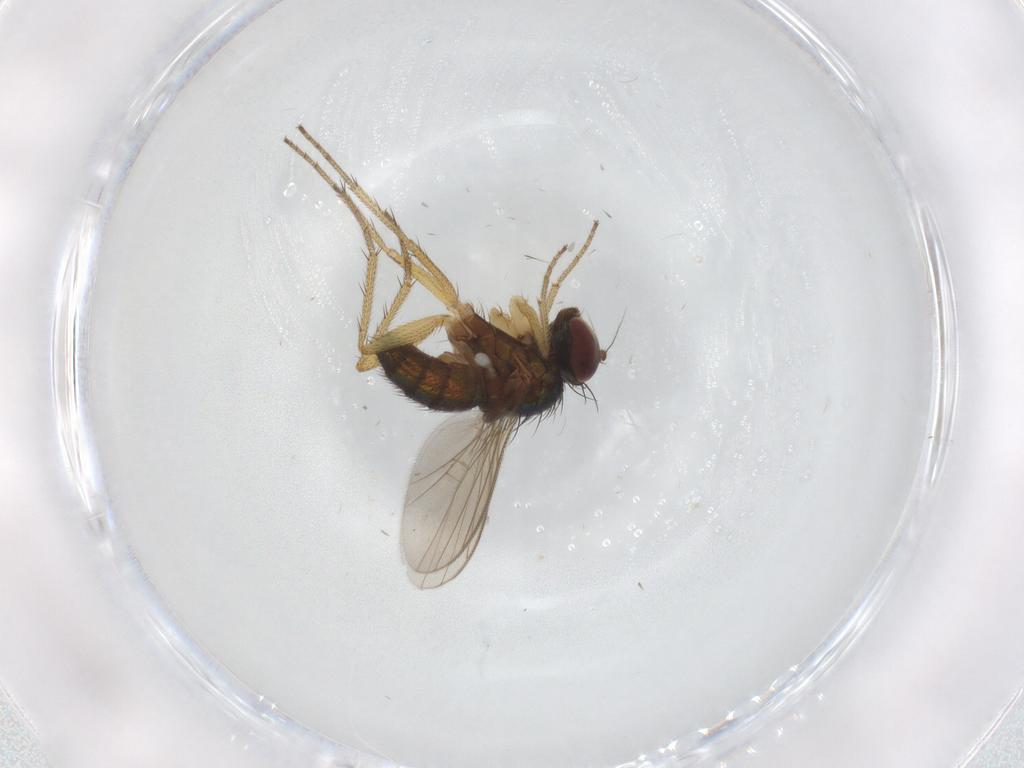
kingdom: Animalia
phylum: Arthropoda
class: Insecta
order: Diptera
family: Dolichopodidae
